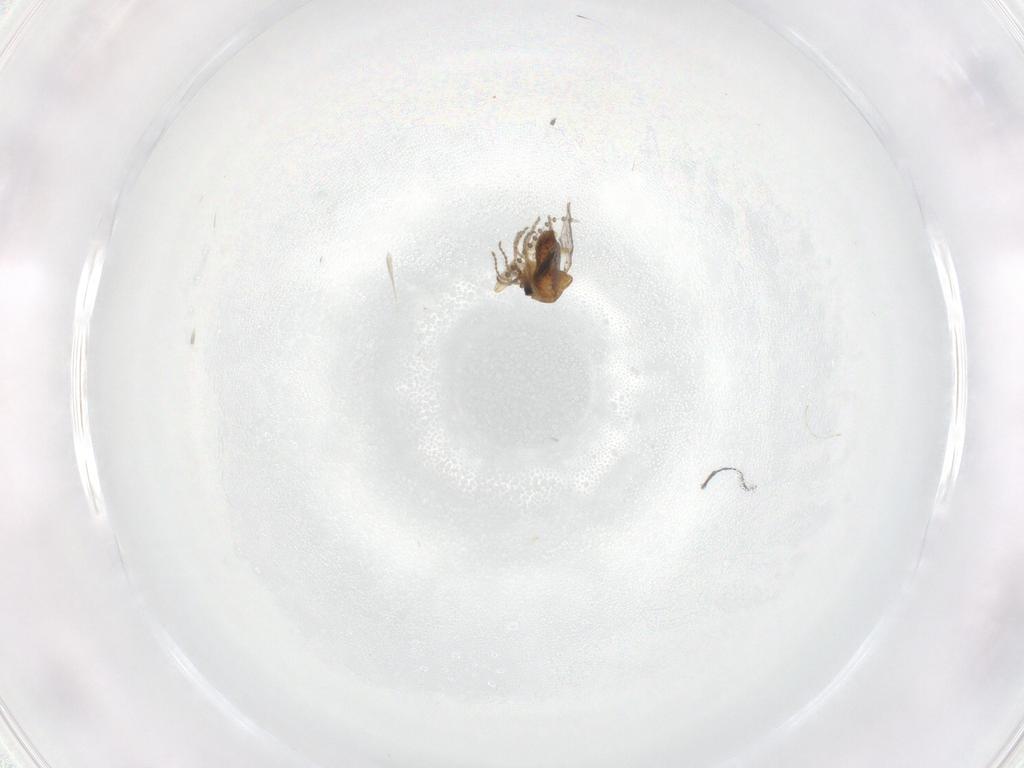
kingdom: Animalia
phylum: Arthropoda
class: Insecta
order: Diptera
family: Ceratopogonidae
